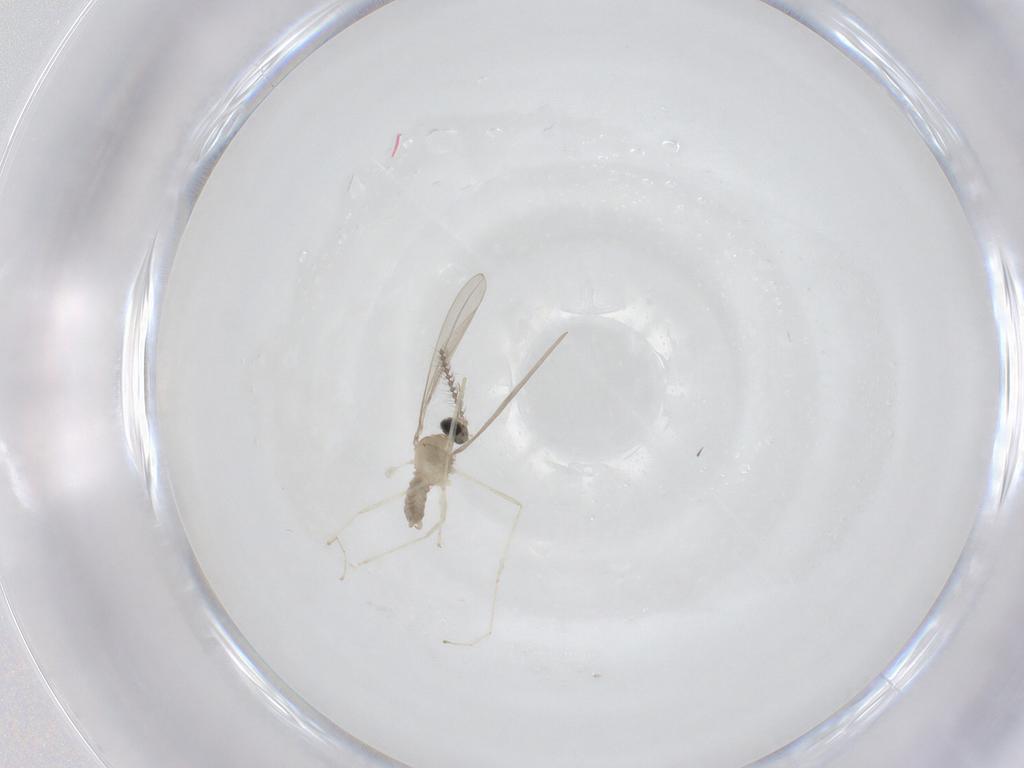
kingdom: Animalia
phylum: Arthropoda
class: Insecta
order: Diptera
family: Cecidomyiidae
